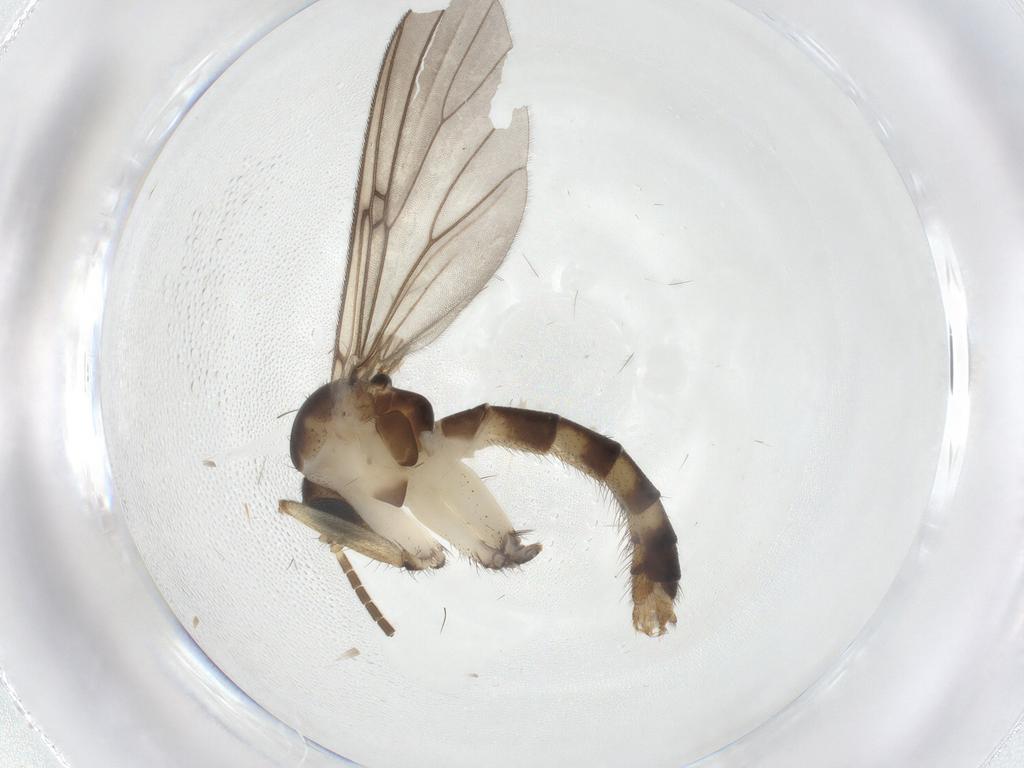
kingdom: Animalia
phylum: Arthropoda
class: Insecta
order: Diptera
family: Mycetophilidae
